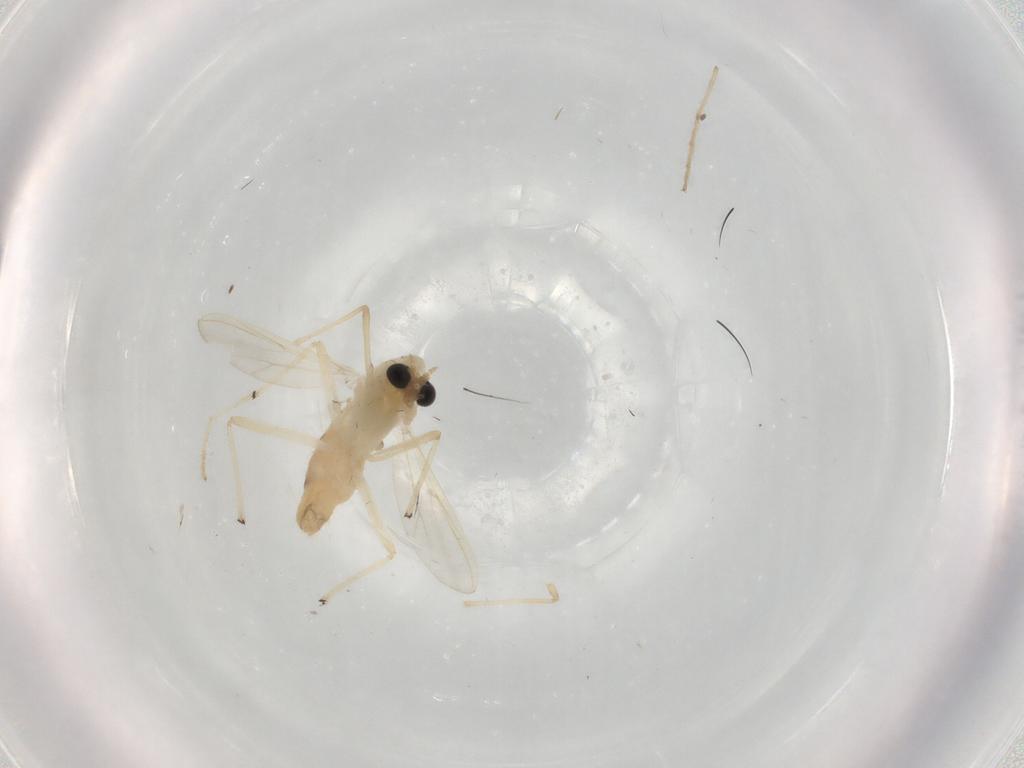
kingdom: Animalia
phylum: Arthropoda
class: Insecta
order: Diptera
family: Chironomidae
